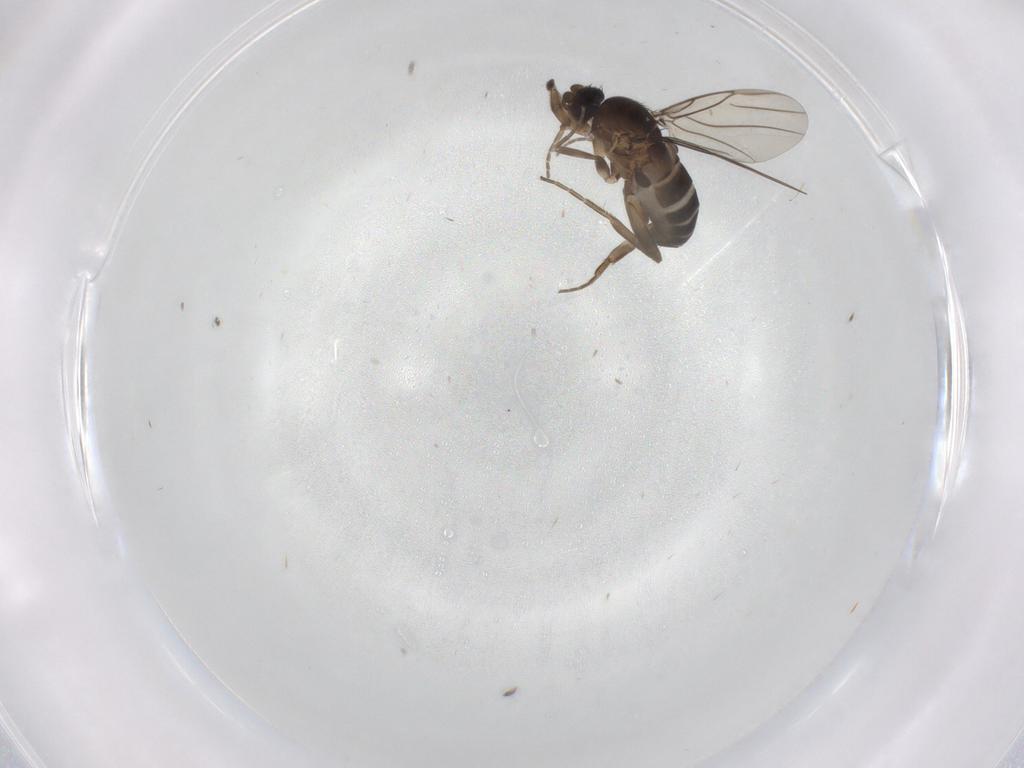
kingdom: Animalia
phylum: Arthropoda
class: Insecta
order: Diptera
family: Phoridae
